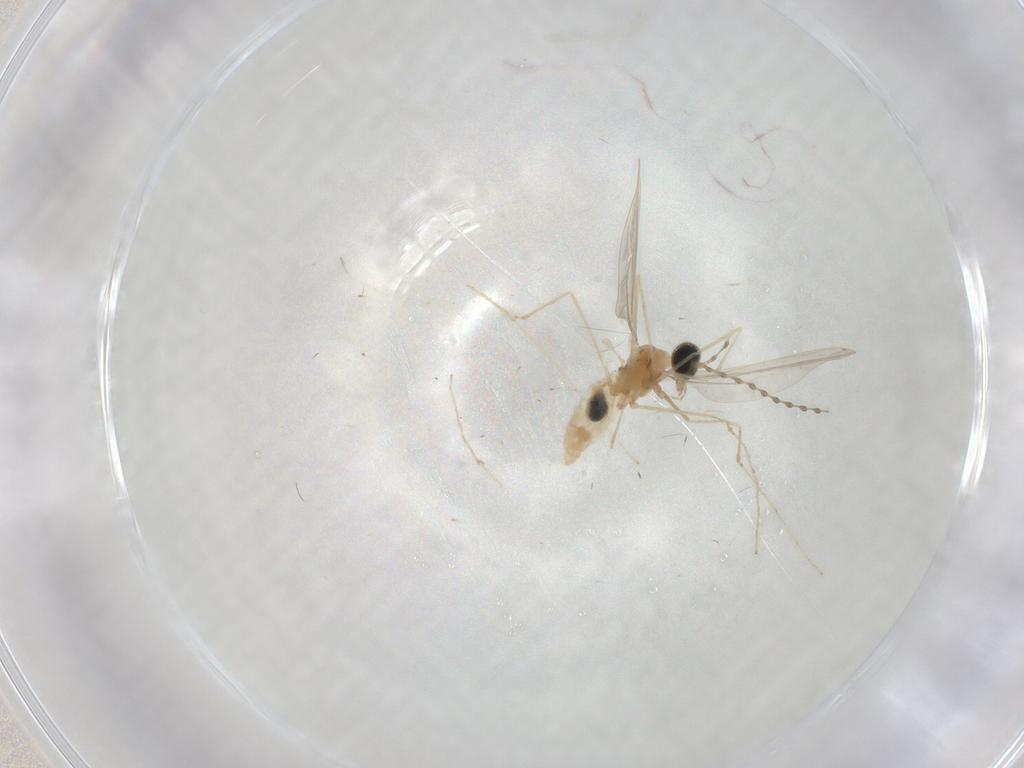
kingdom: Animalia
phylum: Arthropoda
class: Insecta
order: Diptera
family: Cecidomyiidae
